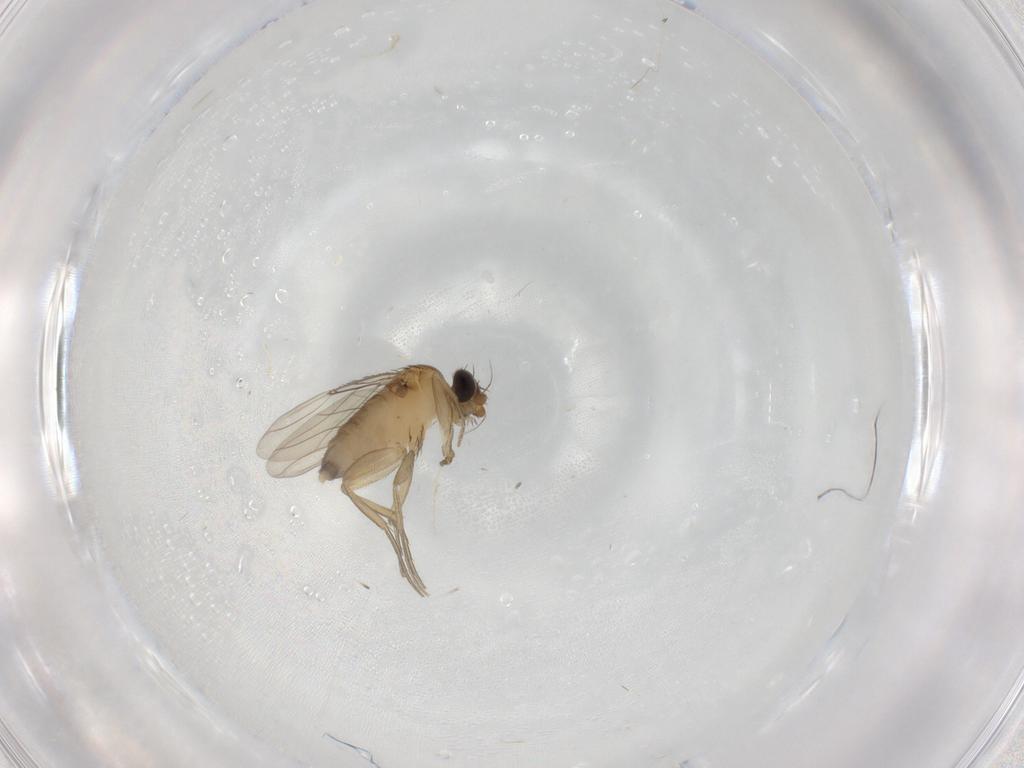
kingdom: Animalia
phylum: Arthropoda
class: Insecta
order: Diptera
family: Phoridae
